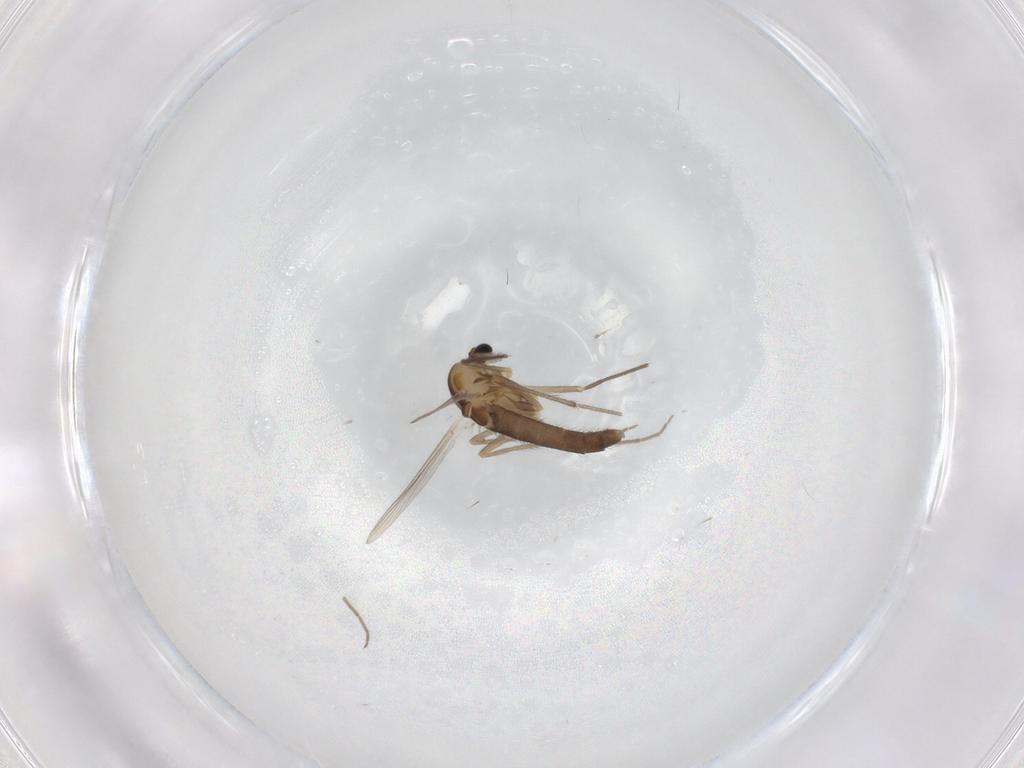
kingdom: Animalia
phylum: Arthropoda
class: Insecta
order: Diptera
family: Chironomidae
